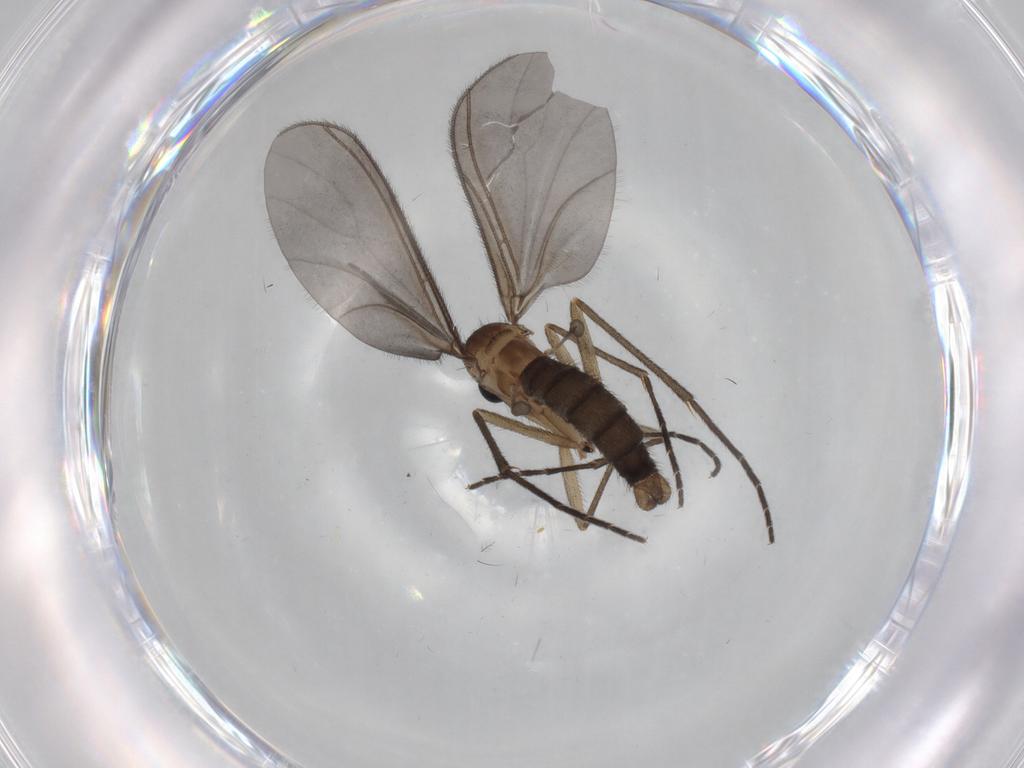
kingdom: Animalia
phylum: Arthropoda
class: Insecta
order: Diptera
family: Sciaridae
